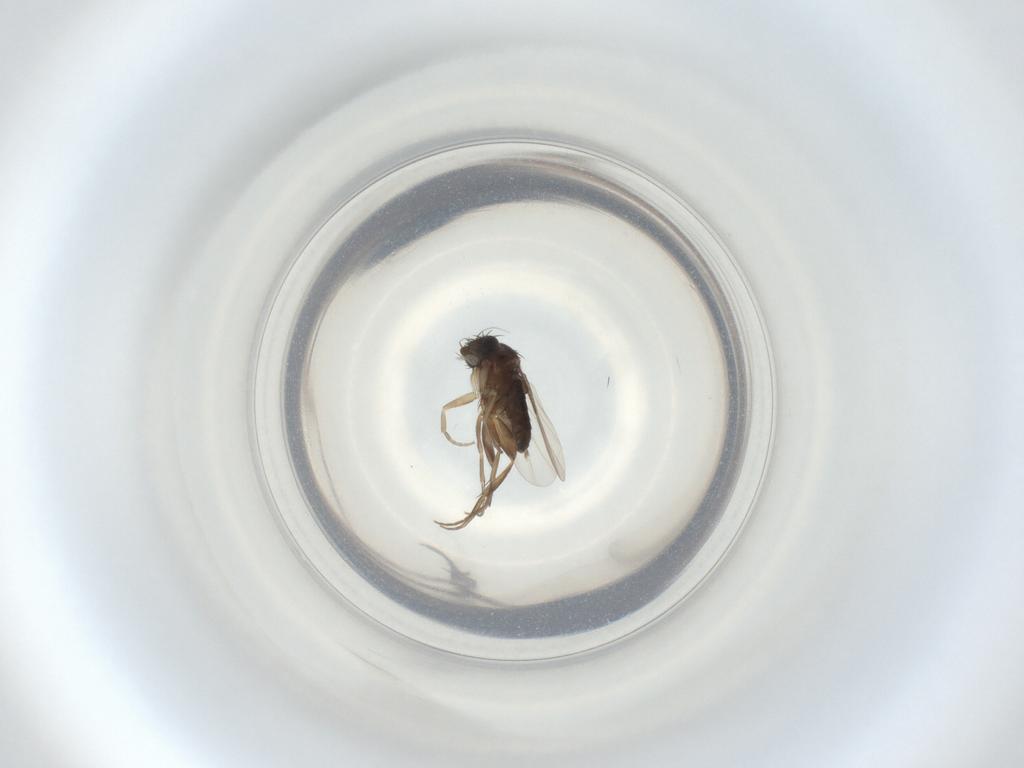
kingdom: Animalia
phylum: Arthropoda
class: Insecta
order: Diptera
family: Phoridae
